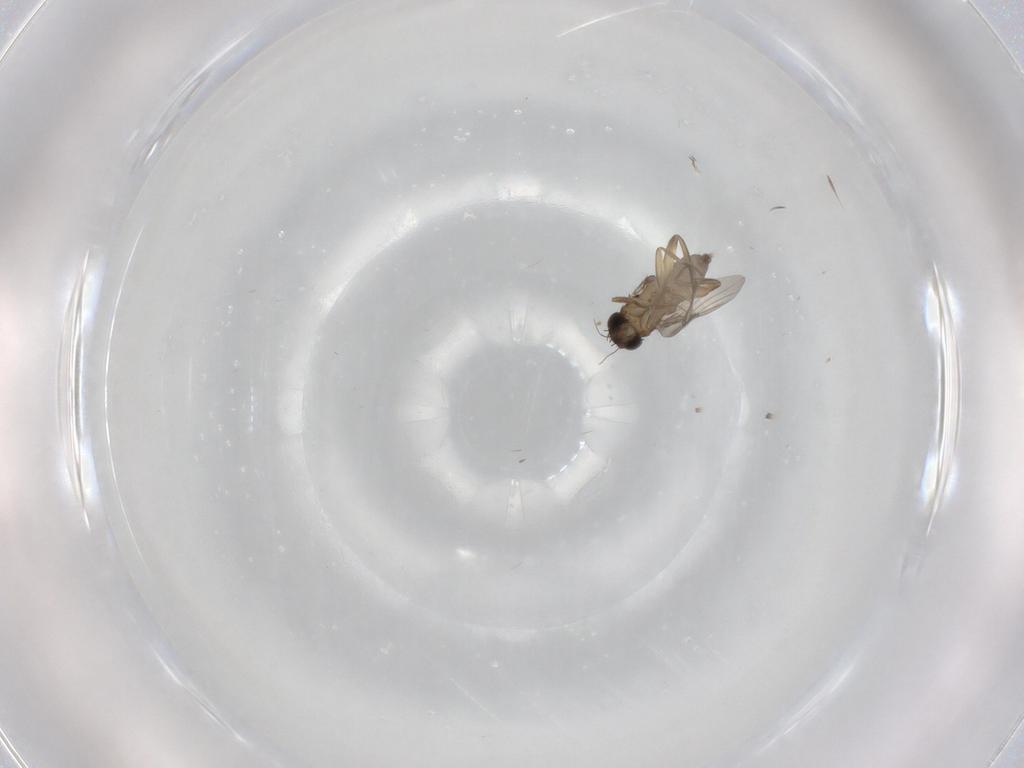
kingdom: Animalia
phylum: Arthropoda
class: Insecta
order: Diptera
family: Phoridae
